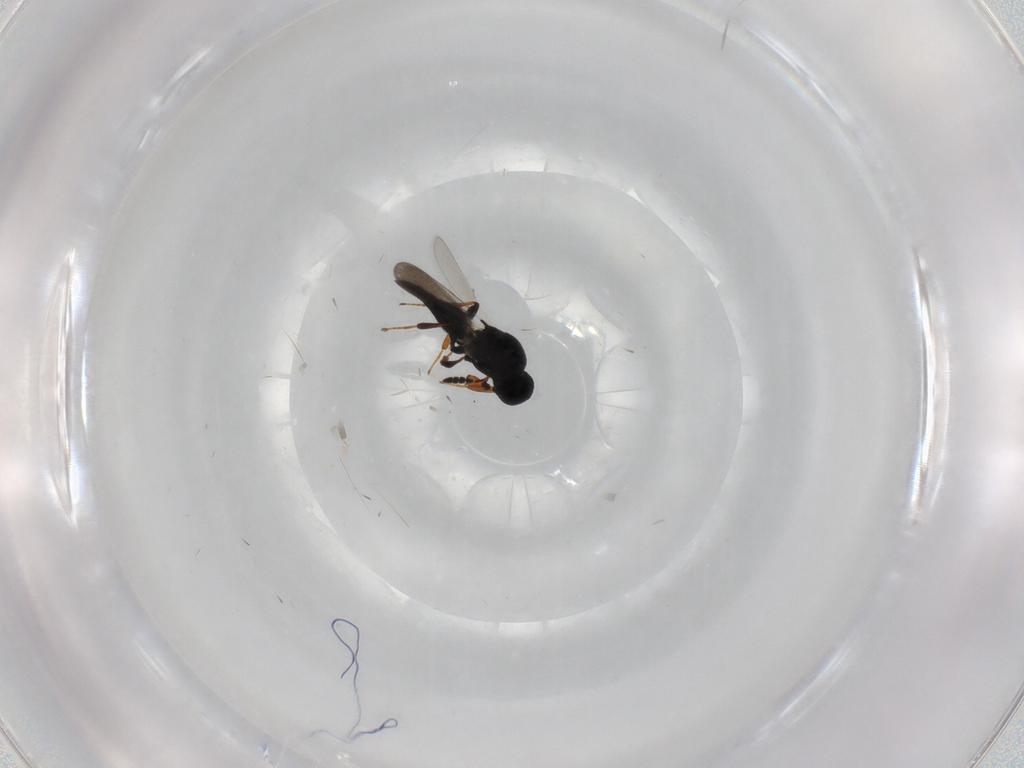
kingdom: Animalia
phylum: Arthropoda
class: Insecta
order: Hymenoptera
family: Platygastridae
